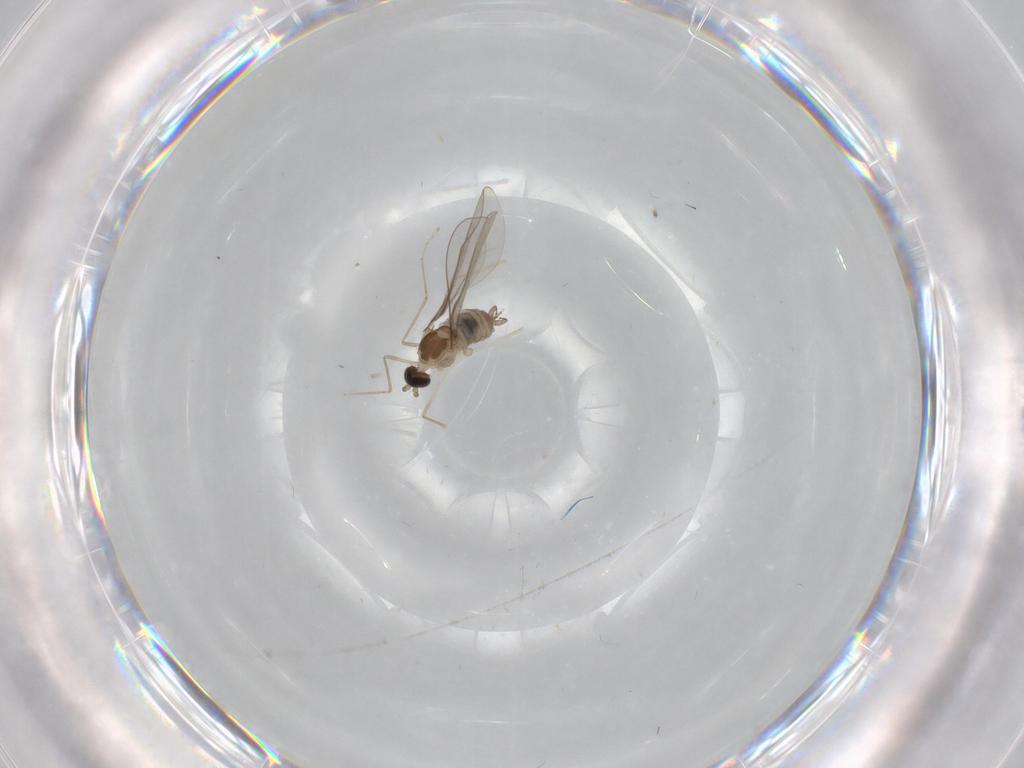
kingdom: Animalia
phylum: Arthropoda
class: Insecta
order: Diptera
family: Cecidomyiidae
